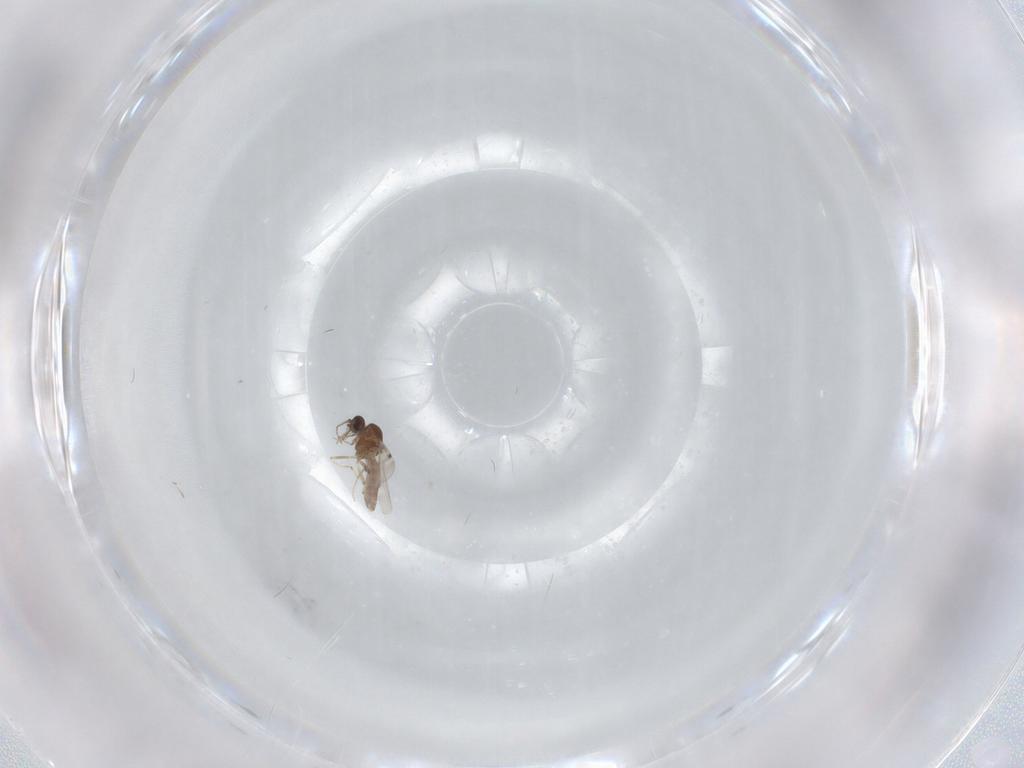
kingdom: Animalia
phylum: Arthropoda
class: Insecta
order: Diptera
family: Cecidomyiidae
